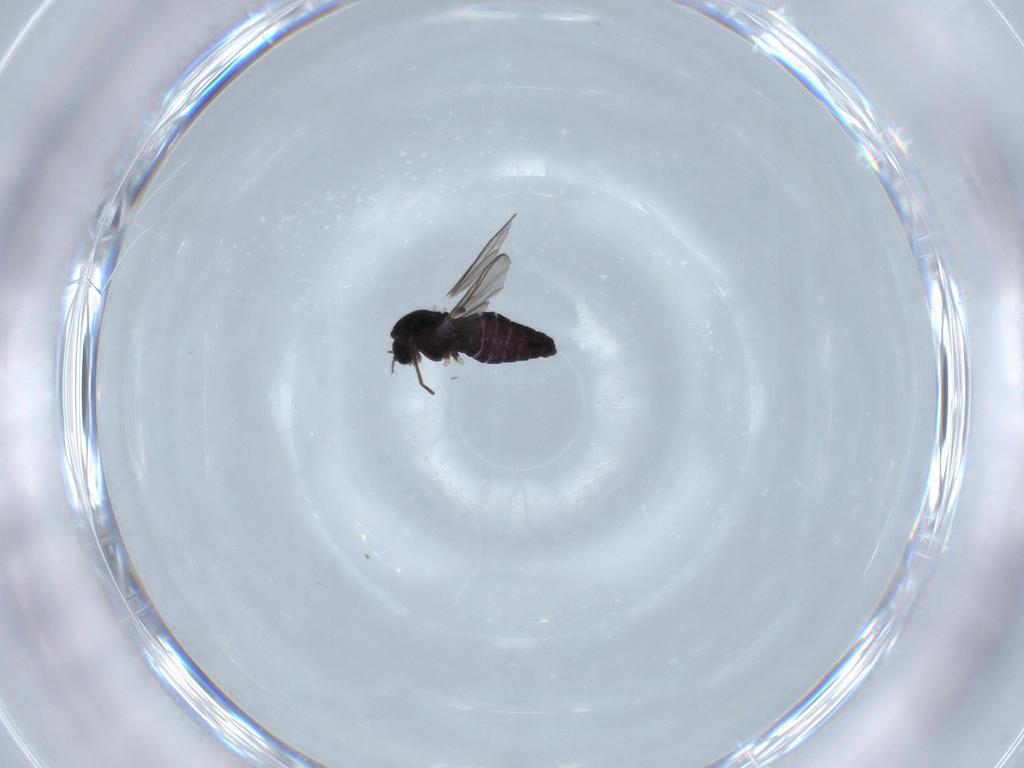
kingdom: Animalia
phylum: Arthropoda
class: Insecta
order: Diptera
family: Chironomidae
